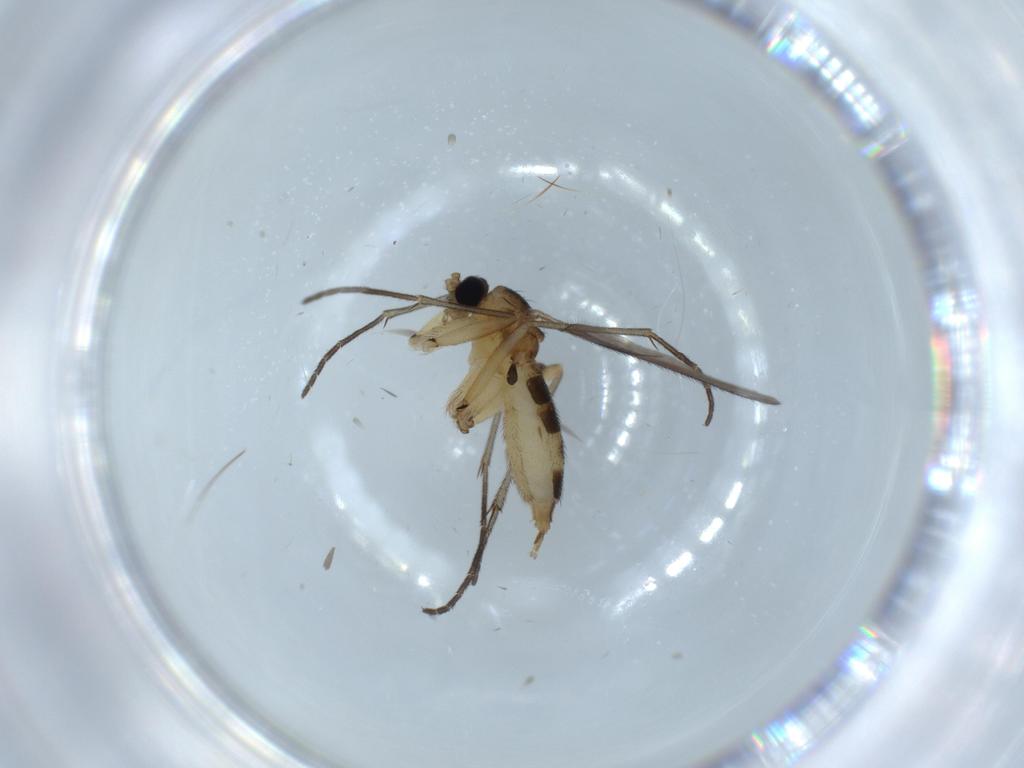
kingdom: Animalia
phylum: Arthropoda
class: Insecta
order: Diptera
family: Sciaridae
